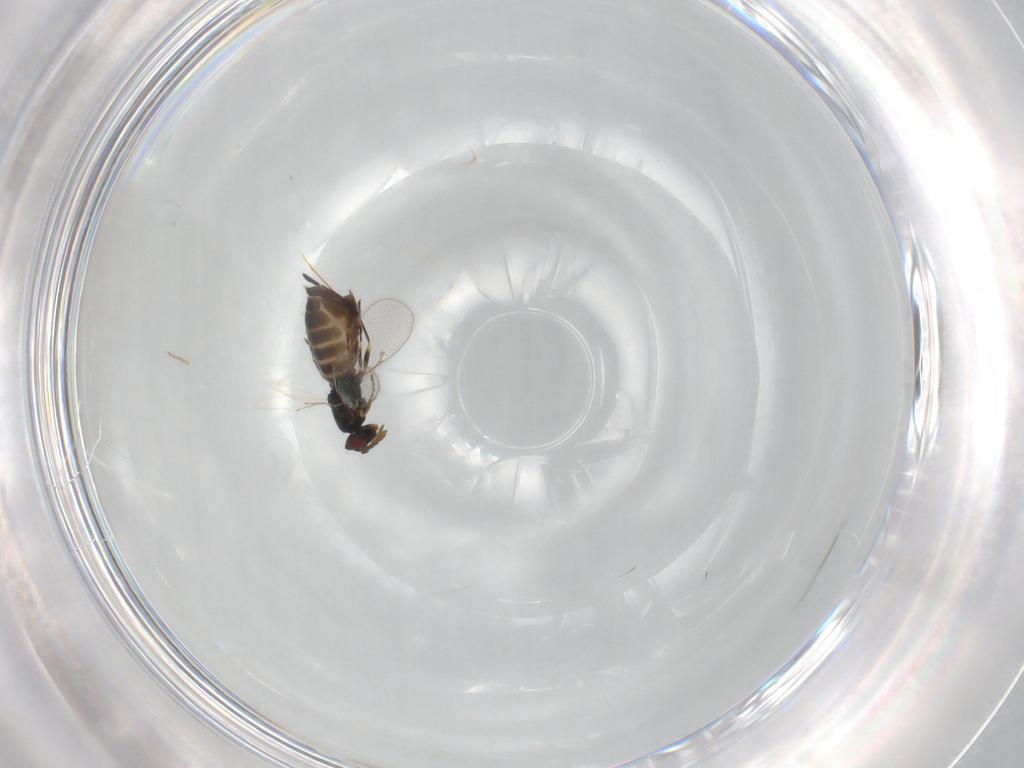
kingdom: Animalia
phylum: Arthropoda
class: Insecta
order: Hymenoptera
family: Eulophidae
